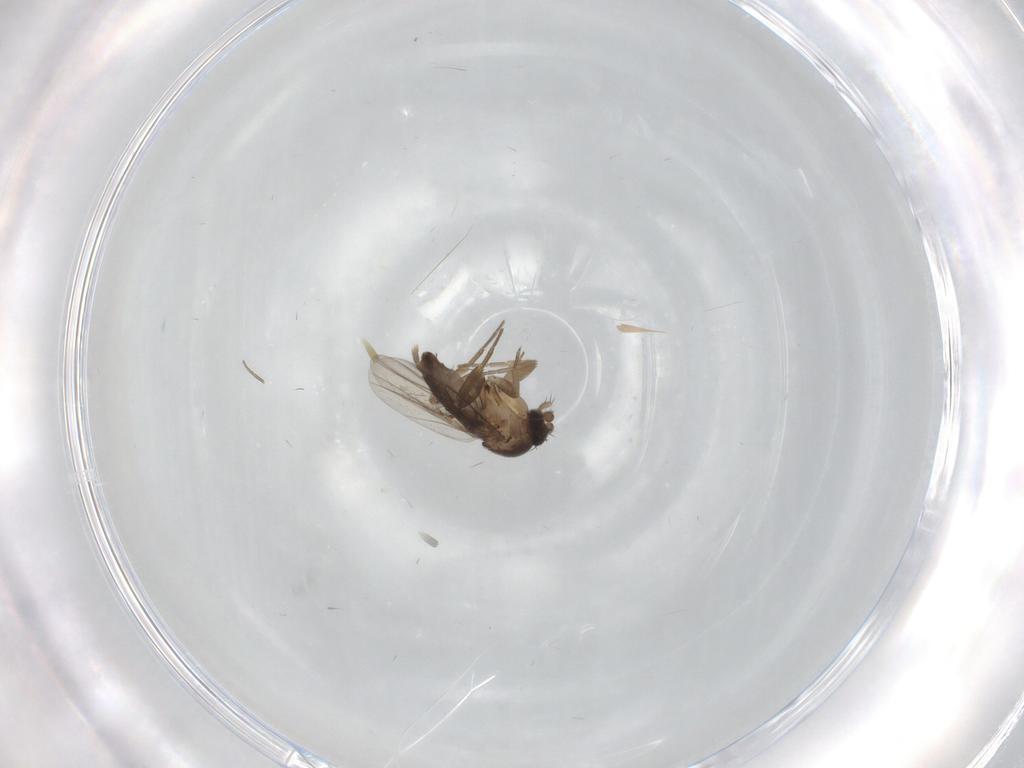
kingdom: Animalia
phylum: Arthropoda
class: Insecta
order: Diptera
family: Phoridae
